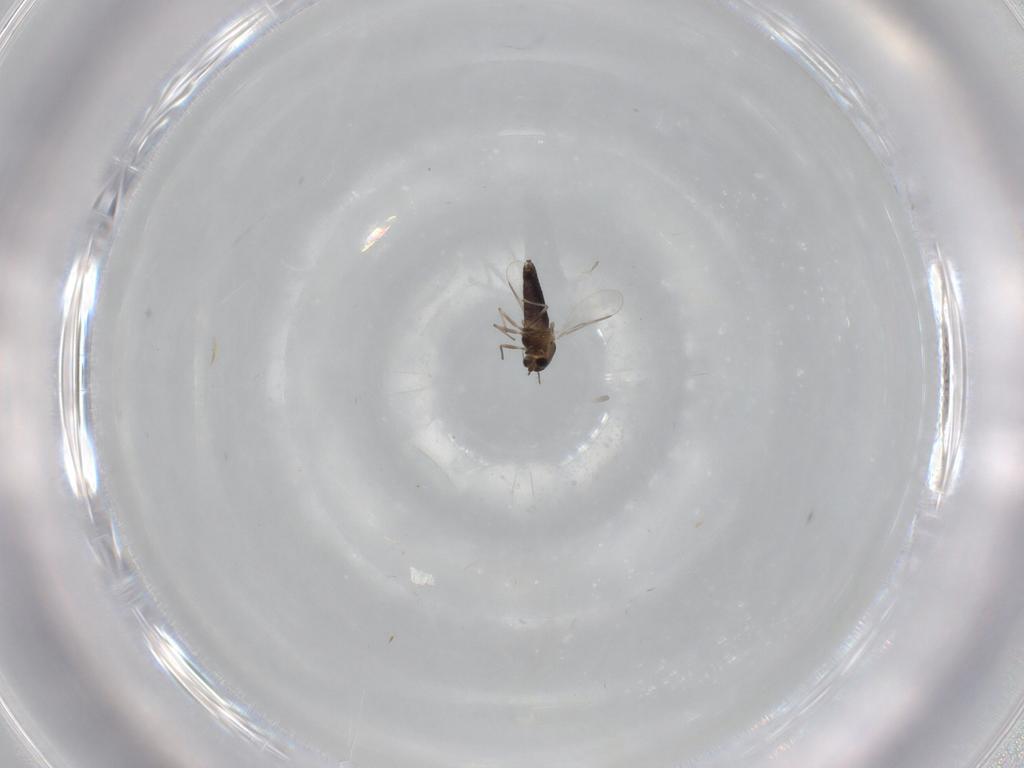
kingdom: Animalia
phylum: Arthropoda
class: Insecta
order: Diptera
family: Chironomidae
